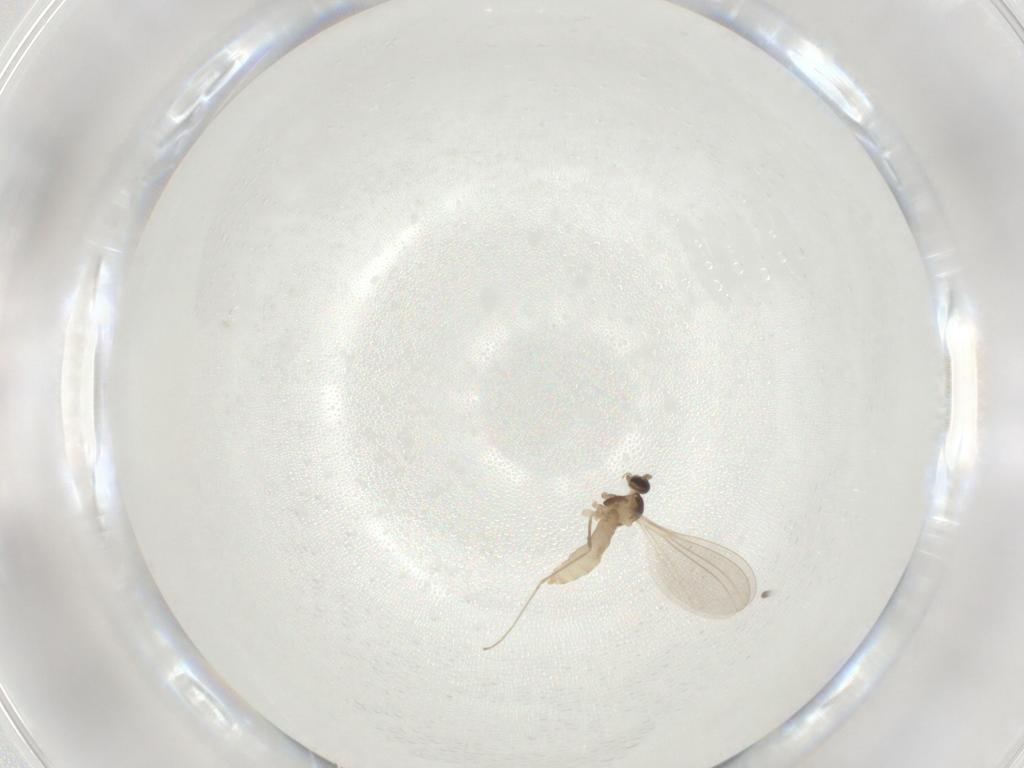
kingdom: Animalia
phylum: Arthropoda
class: Insecta
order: Diptera
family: Cecidomyiidae
